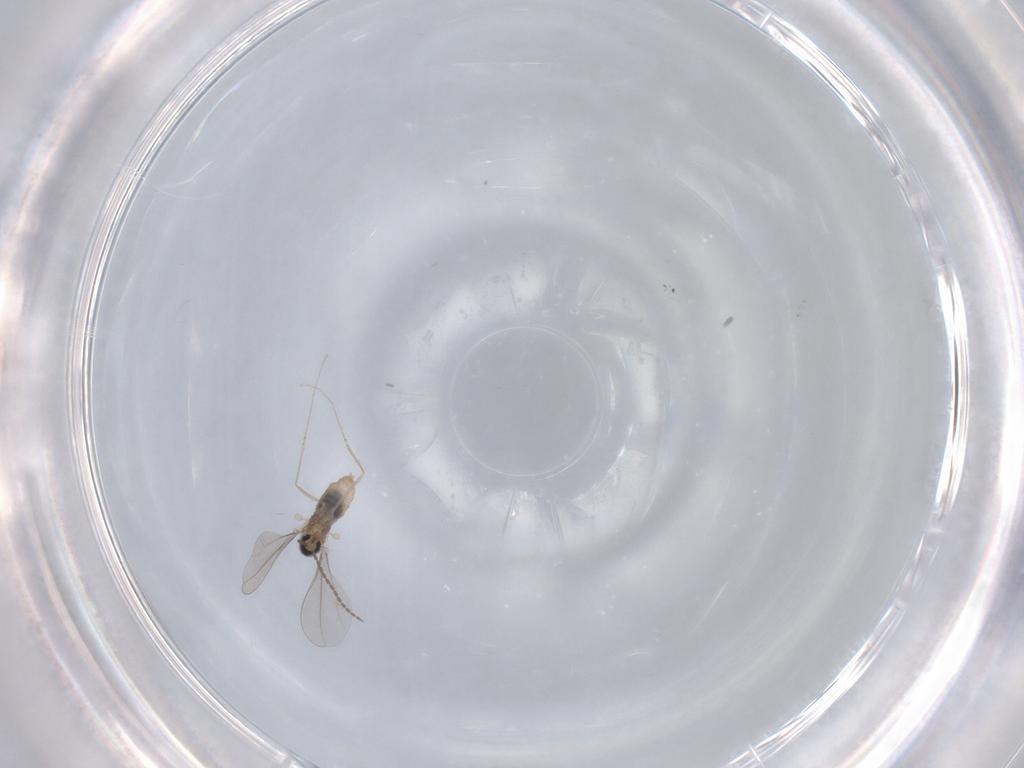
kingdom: Animalia
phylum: Arthropoda
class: Insecta
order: Diptera
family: Cecidomyiidae
